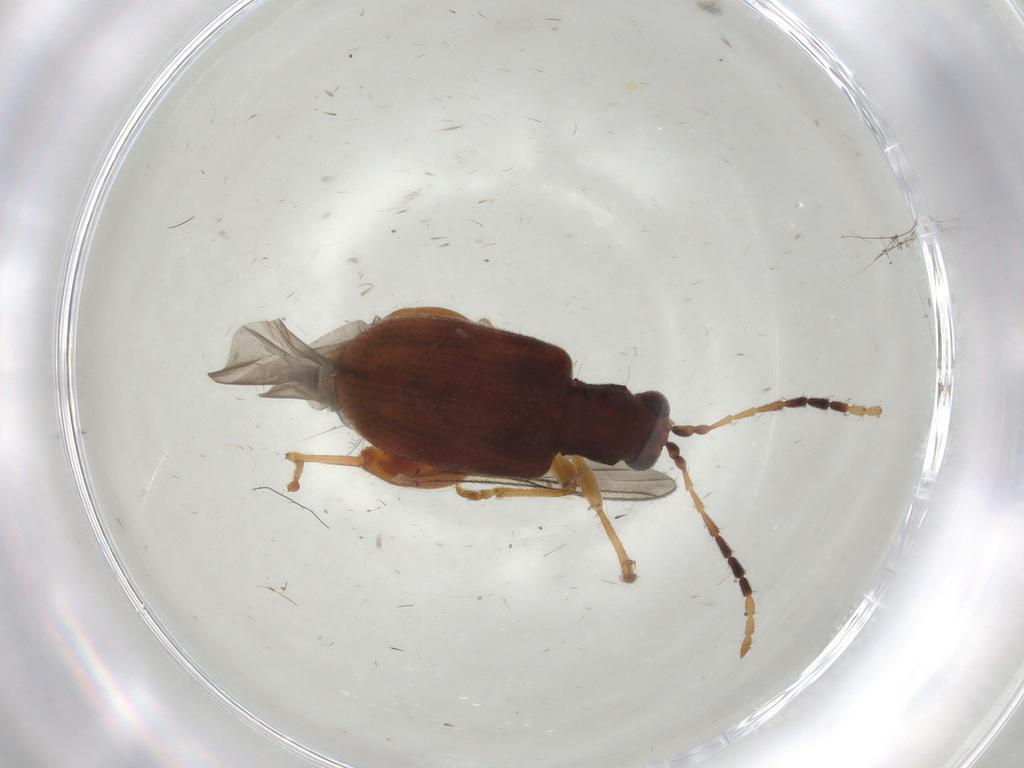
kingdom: Animalia
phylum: Arthropoda
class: Insecta
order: Coleoptera
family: Chrysomelidae
